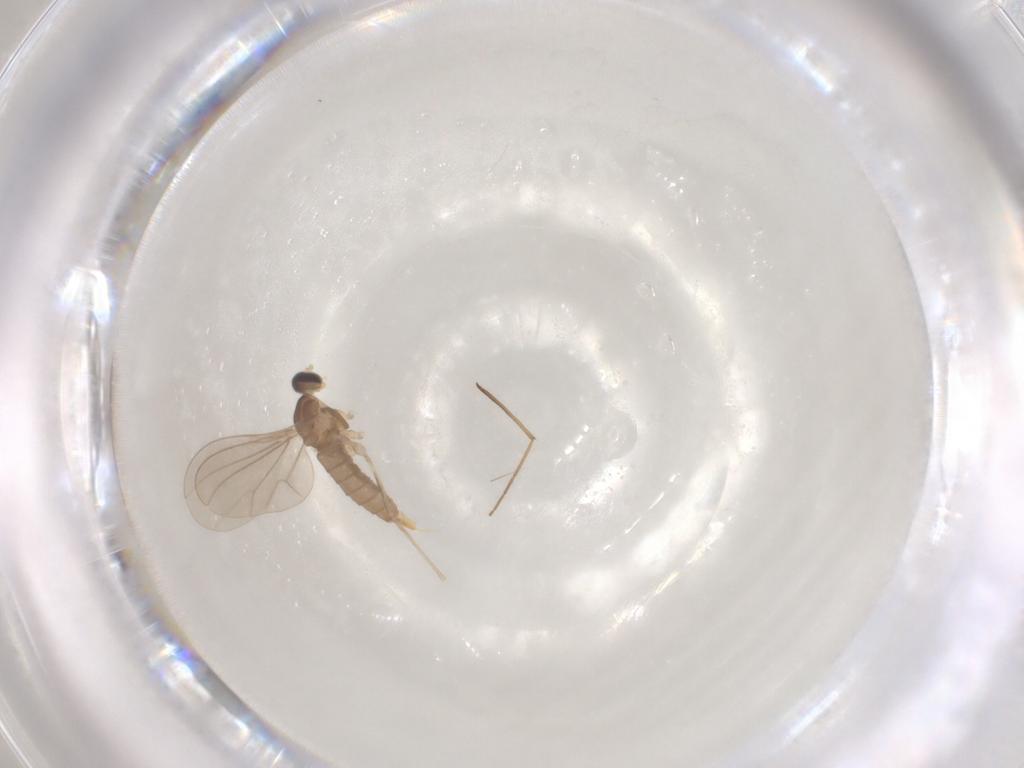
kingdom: Animalia
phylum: Arthropoda
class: Insecta
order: Diptera
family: Cecidomyiidae
